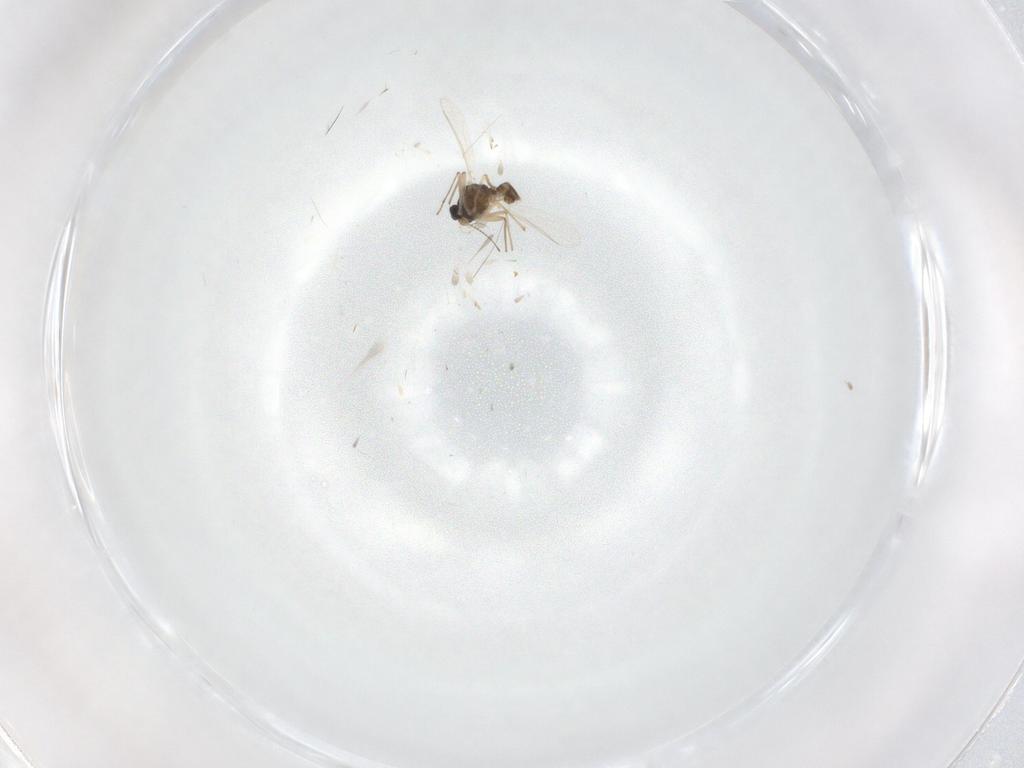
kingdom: Animalia
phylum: Arthropoda
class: Insecta
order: Diptera
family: Chironomidae
